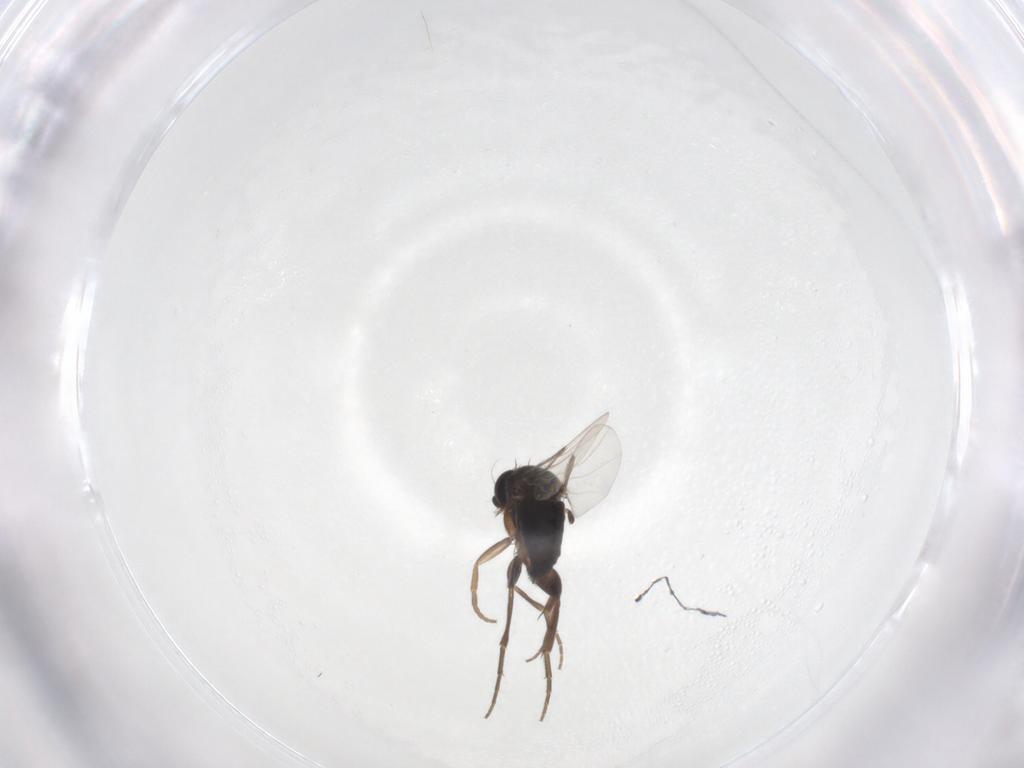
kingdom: Animalia
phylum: Arthropoda
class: Insecta
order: Diptera
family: Phoridae
